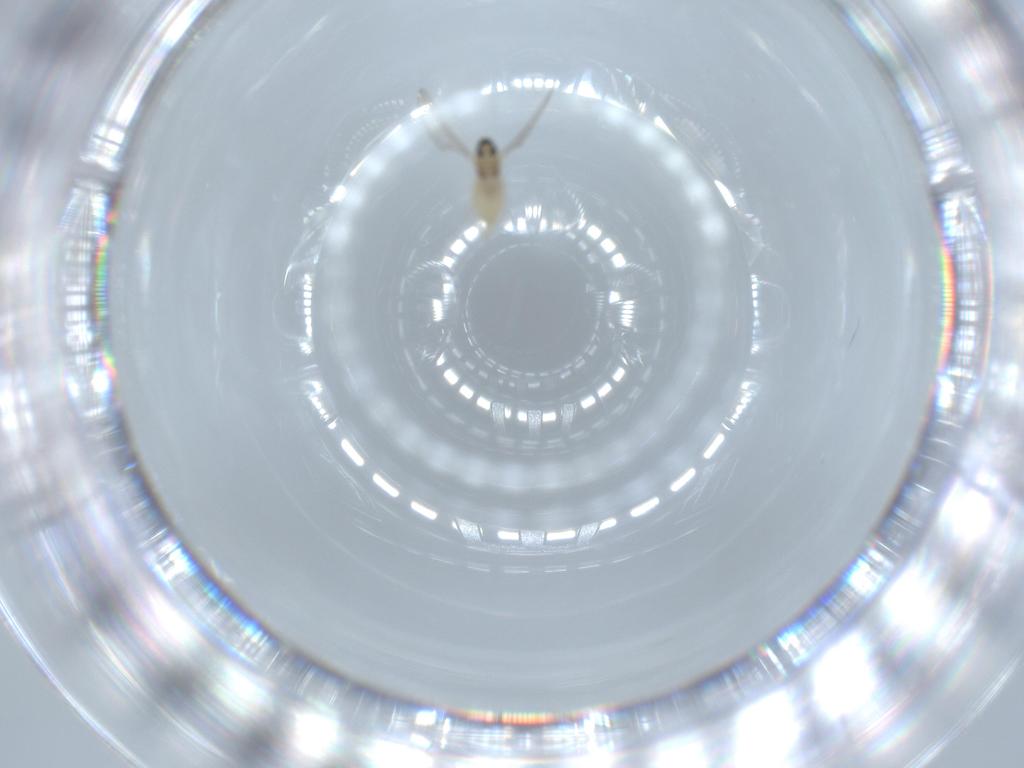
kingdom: Animalia
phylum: Arthropoda
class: Insecta
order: Diptera
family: Cecidomyiidae
